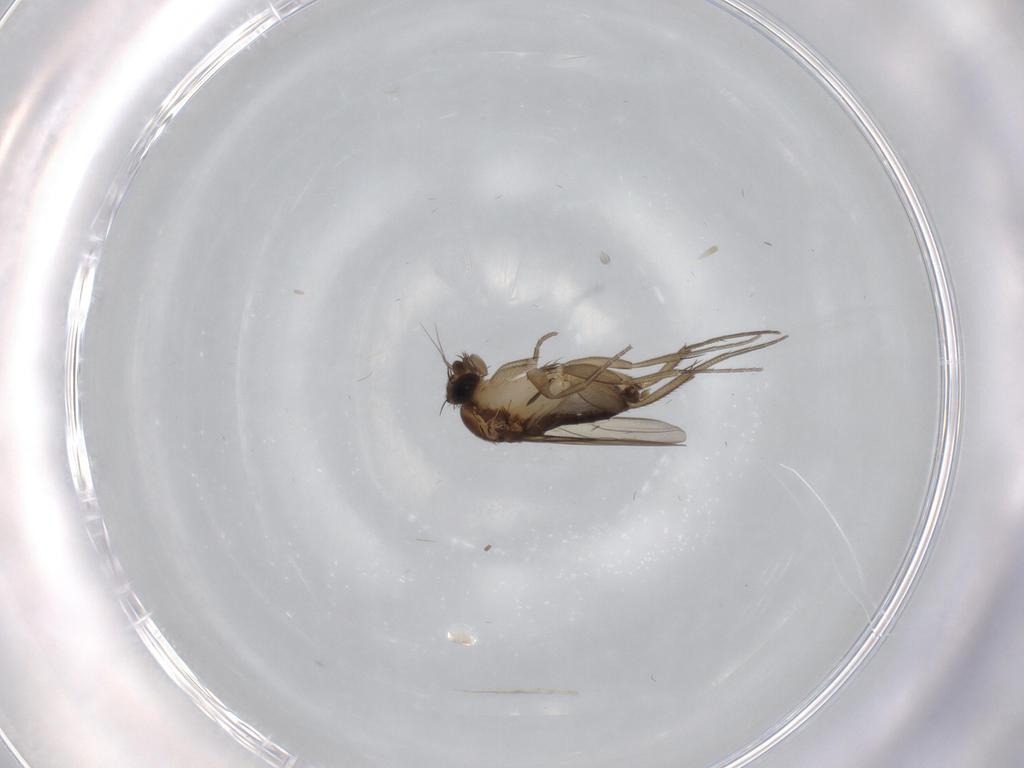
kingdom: Animalia
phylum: Arthropoda
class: Insecta
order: Diptera
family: Phoridae
